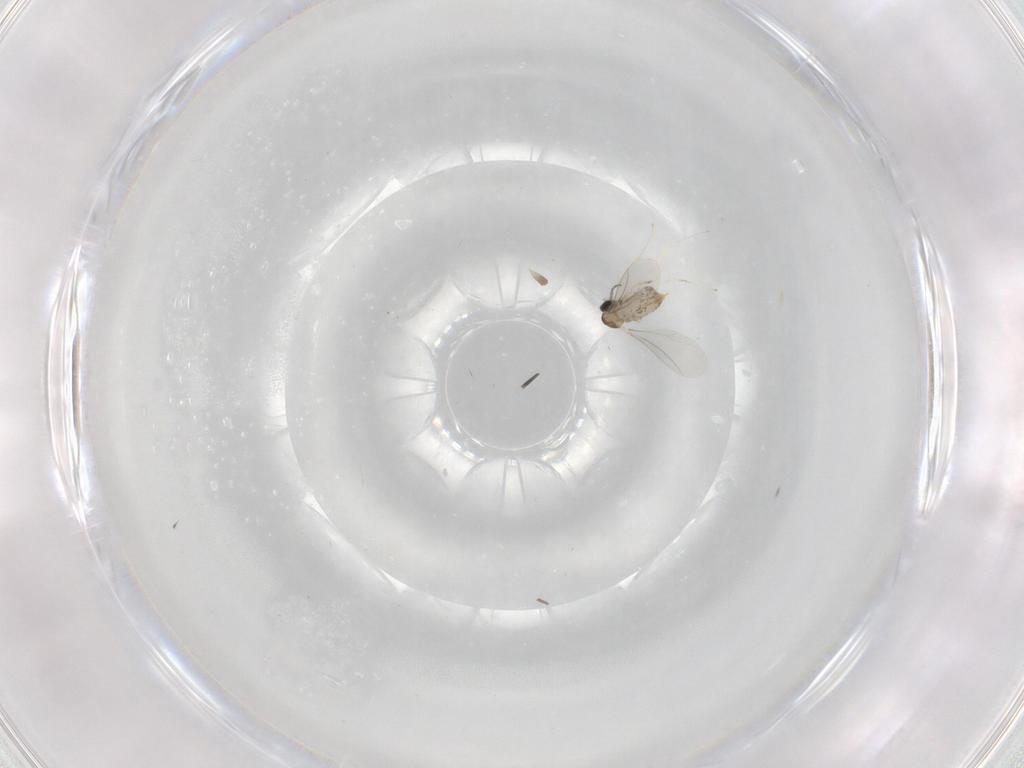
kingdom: Animalia
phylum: Arthropoda
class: Insecta
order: Diptera
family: Cecidomyiidae
